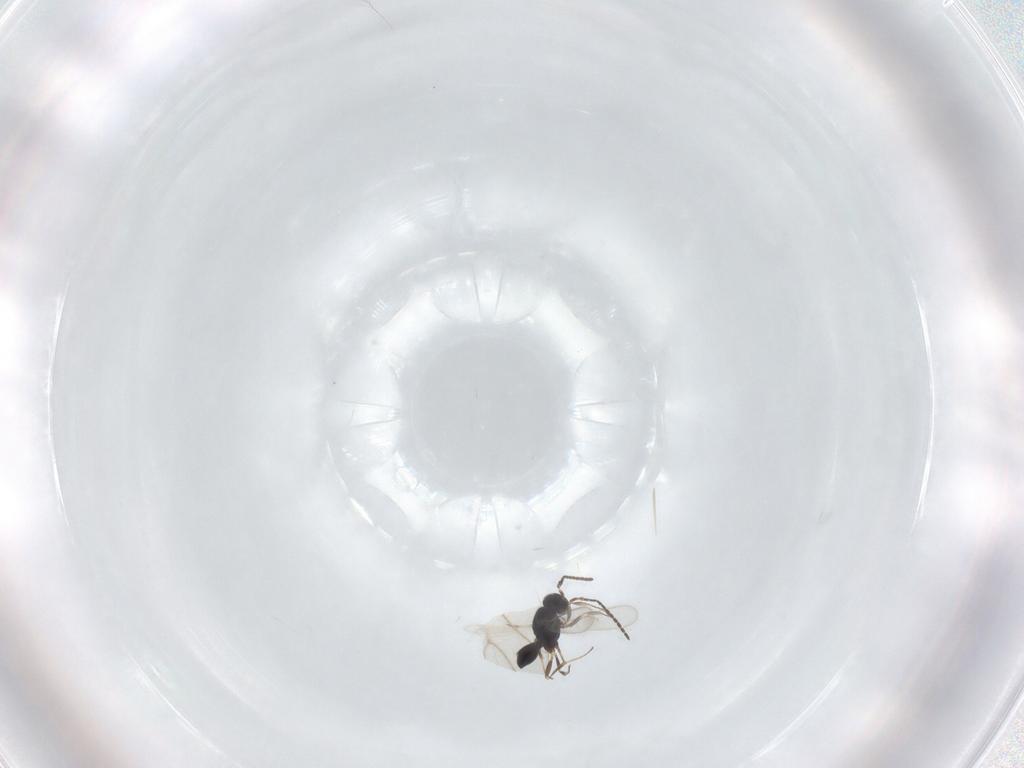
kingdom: Animalia
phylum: Arthropoda
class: Insecta
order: Hymenoptera
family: Scelionidae
